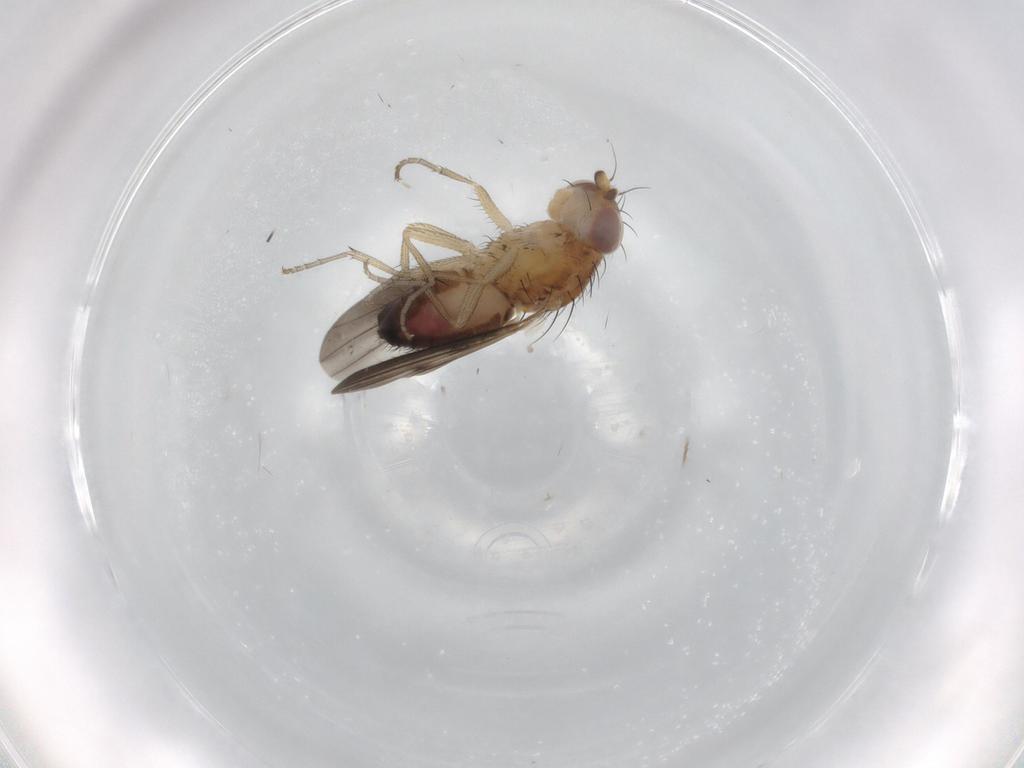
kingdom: Animalia
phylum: Arthropoda
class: Insecta
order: Diptera
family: Heleomyzidae
